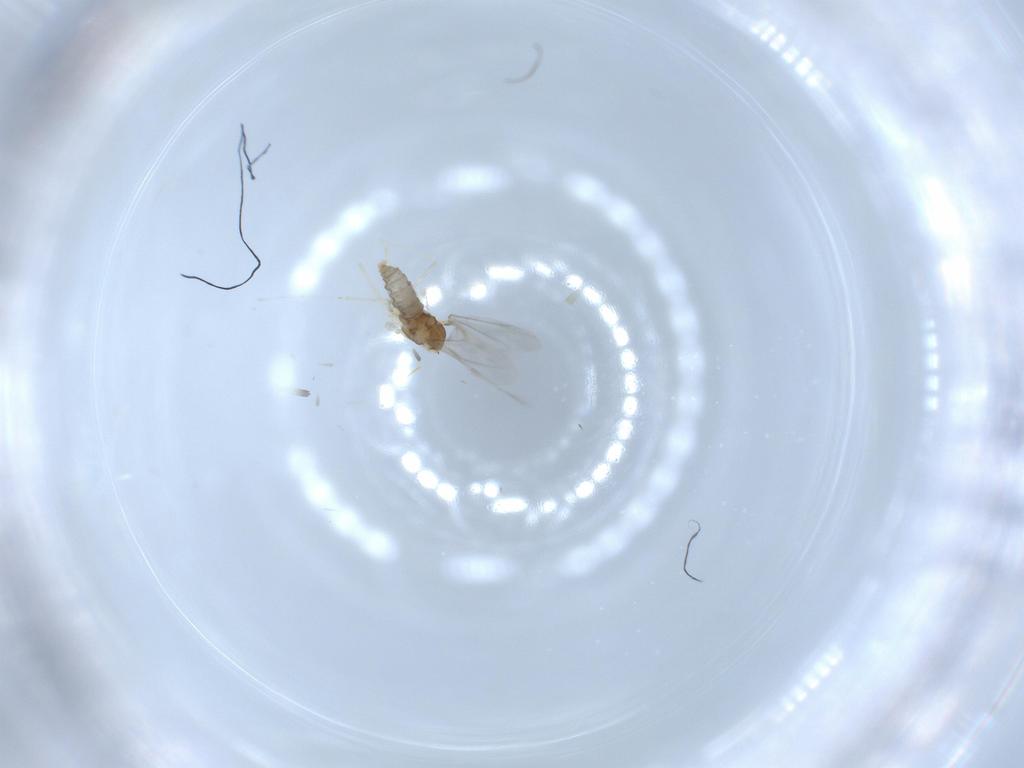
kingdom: Animalia
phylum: Arthropoda
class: Insecta
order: Diptera
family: Cecidomyiidae
